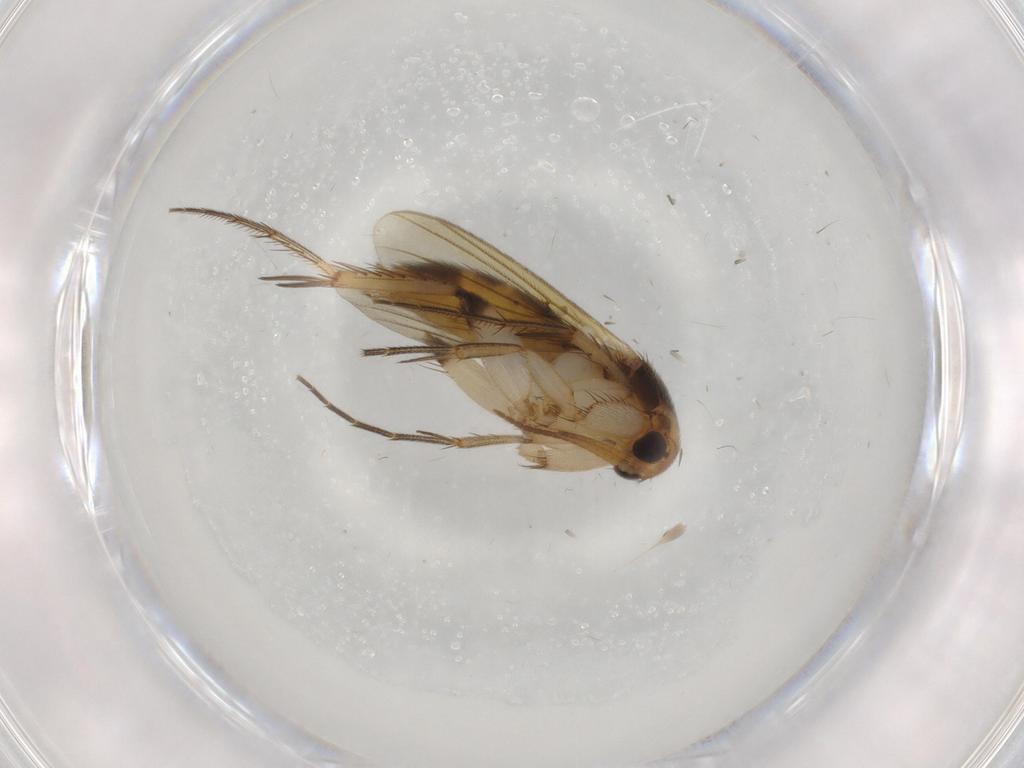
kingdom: Animalia
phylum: Arthropoda
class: Insecta
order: Diptera
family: Mycetophilidae
